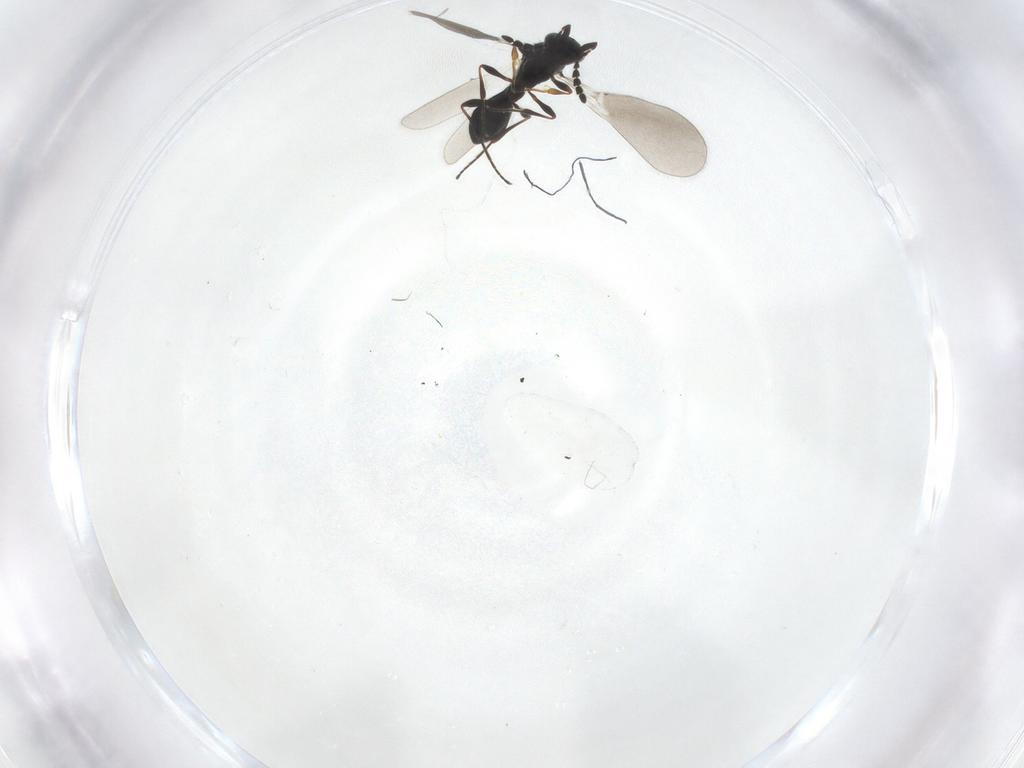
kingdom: Animalia
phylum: Arthropoda
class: Insecta
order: Hymenoptera
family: Platygastridae
